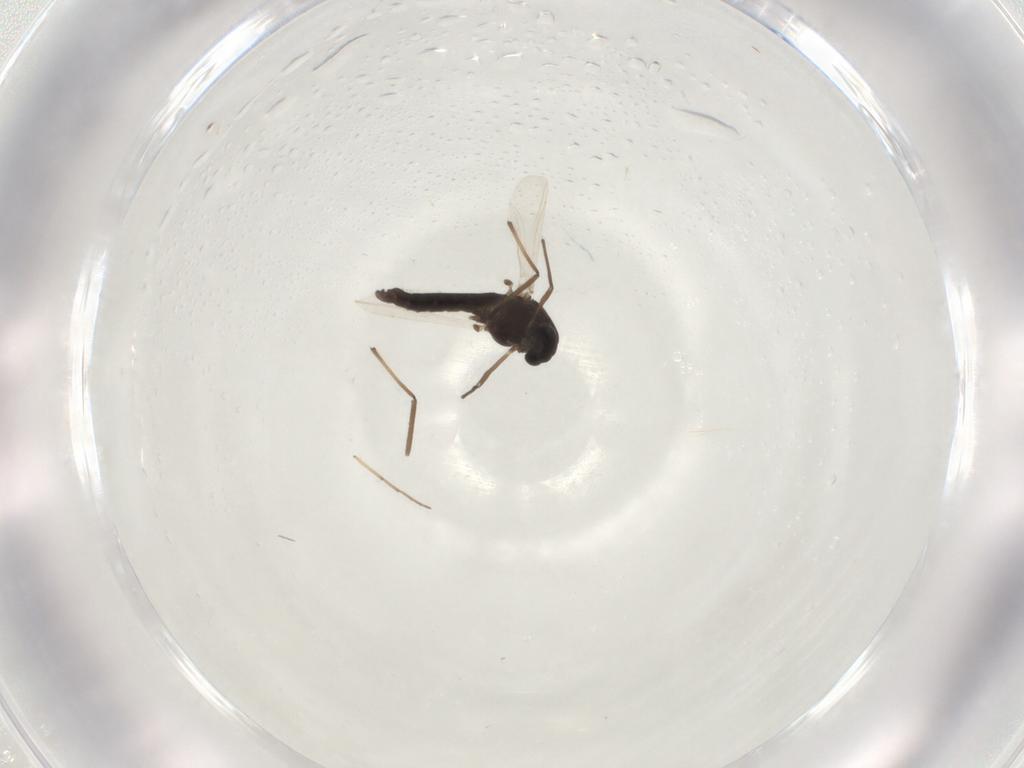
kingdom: Animalia
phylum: Arthropoda
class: Insecta
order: Diptera
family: Chironomidae
